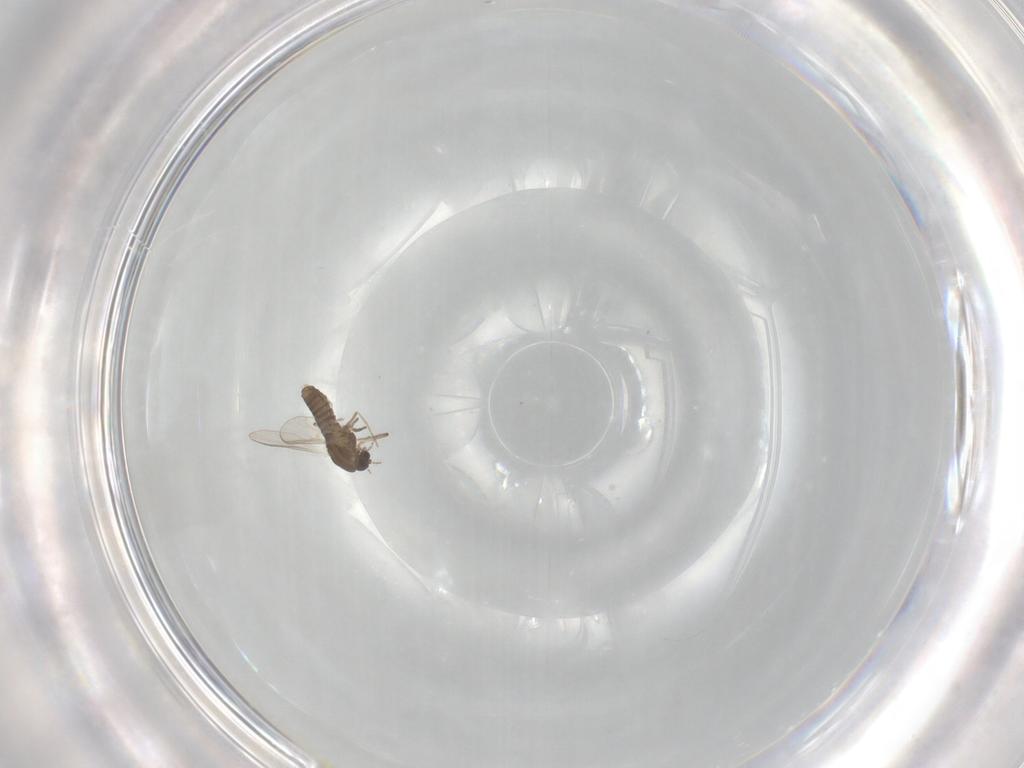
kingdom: Animalia
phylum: Arthropoda
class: Insecta
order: Diptera
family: Chironomidae
